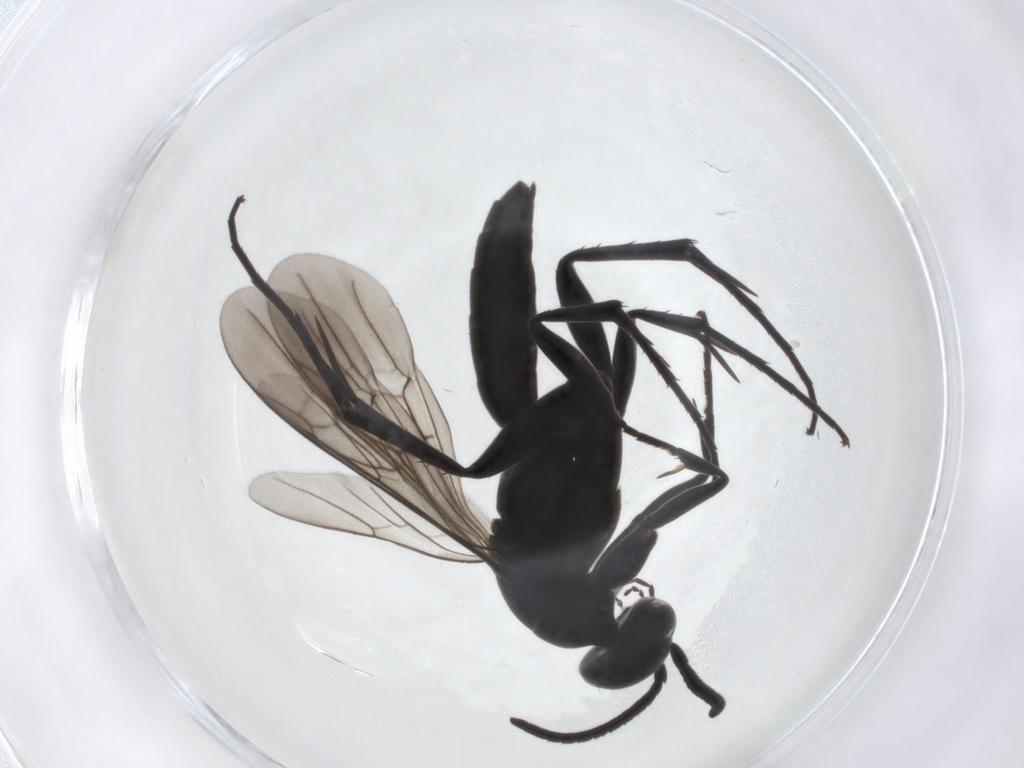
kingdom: Animalia
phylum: Arthropoda
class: Insecta
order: Hymenoptera
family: Pompilidae
